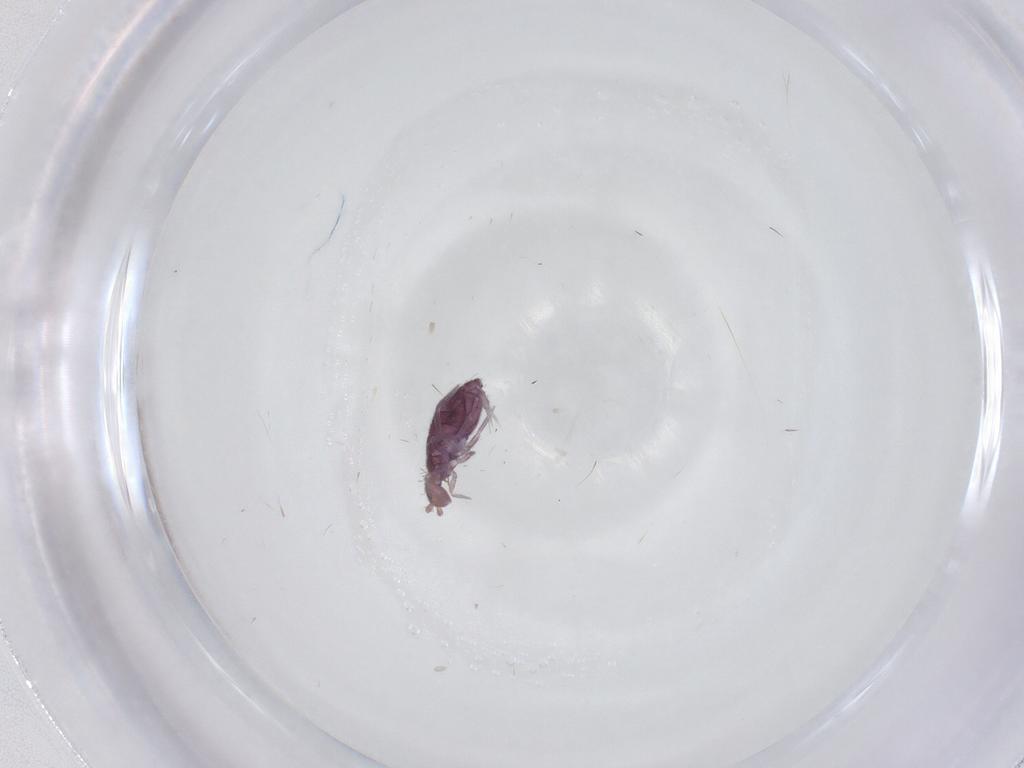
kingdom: Animalia
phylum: Arthropoda
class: Collembola
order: Entomobryomorpha
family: Entomobryidae
